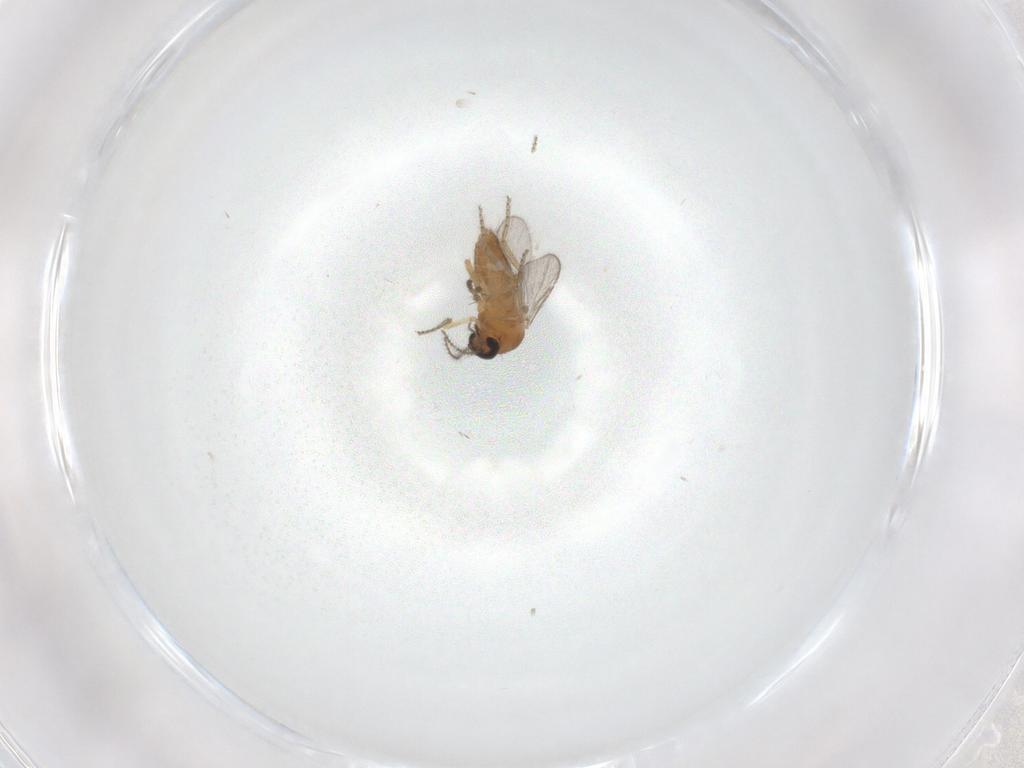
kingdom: Animalia
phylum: Arthropoda
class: Insecta
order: Diptera
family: Ceratopogonidae
